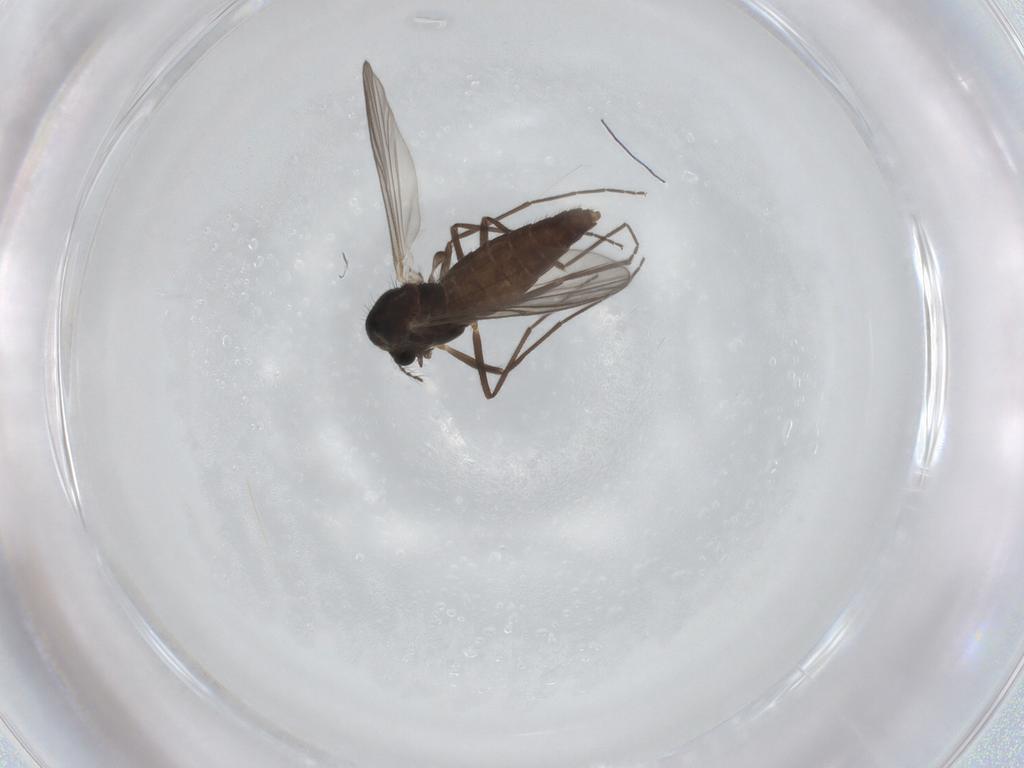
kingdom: Animalia
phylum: Arthropoda
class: Insecta
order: Diptera
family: Chironomidae
